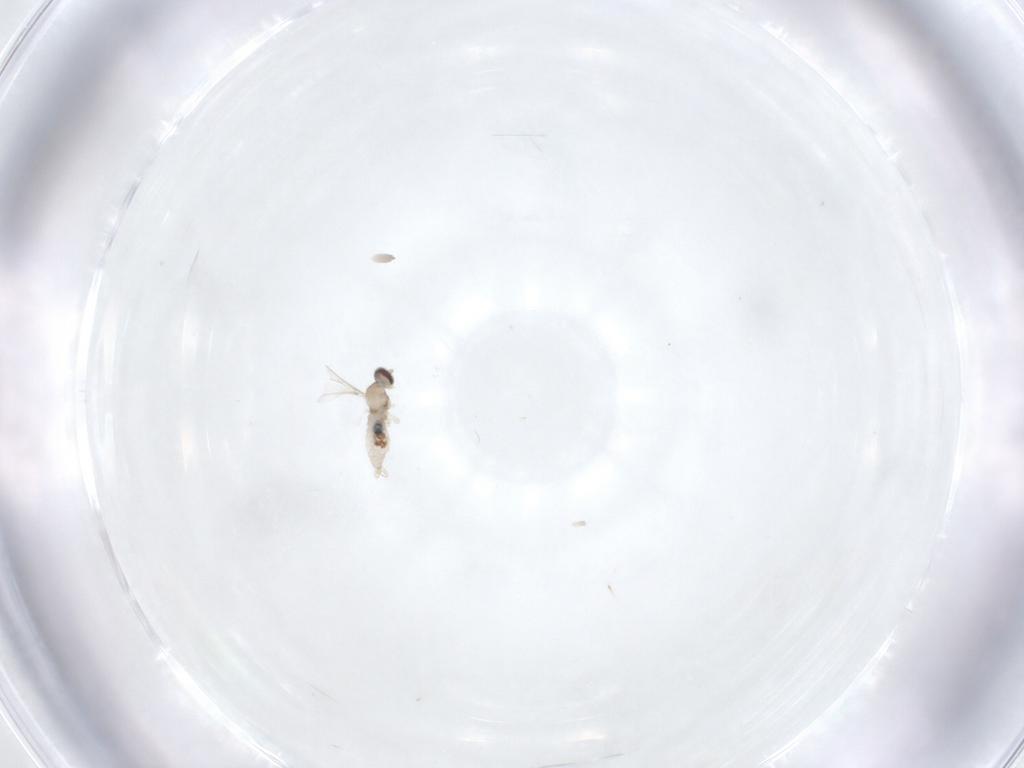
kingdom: Animalia
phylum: Arthropoda
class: Insecta
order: Diptera
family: Cecidomyiidae
